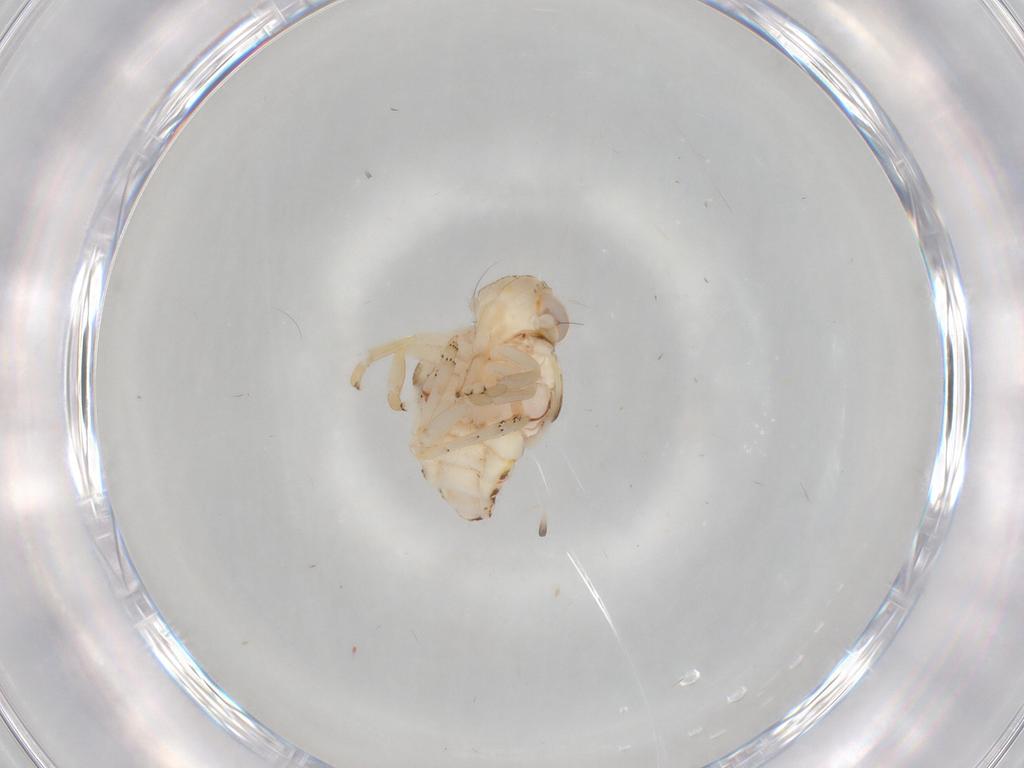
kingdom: Animalia
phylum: Arthropoda
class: Insecta
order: Hemiptera
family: Nogodinidae
